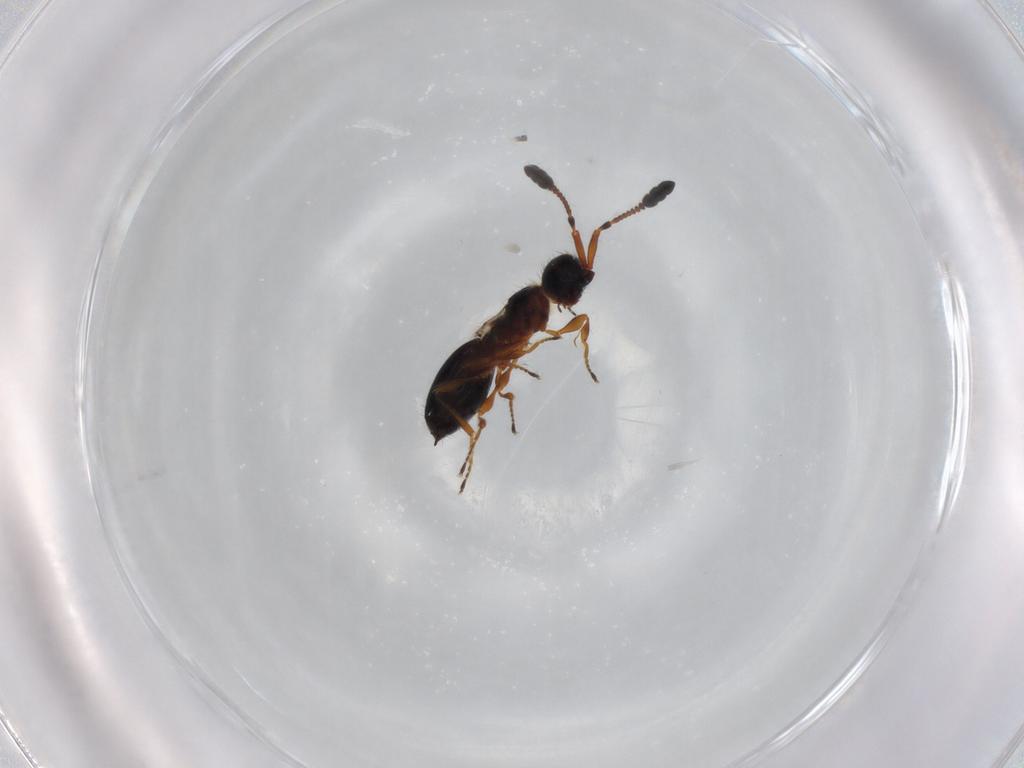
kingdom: Animalia
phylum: Arthropoda
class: Insecta
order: Hymenoptera
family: Diapriidae
